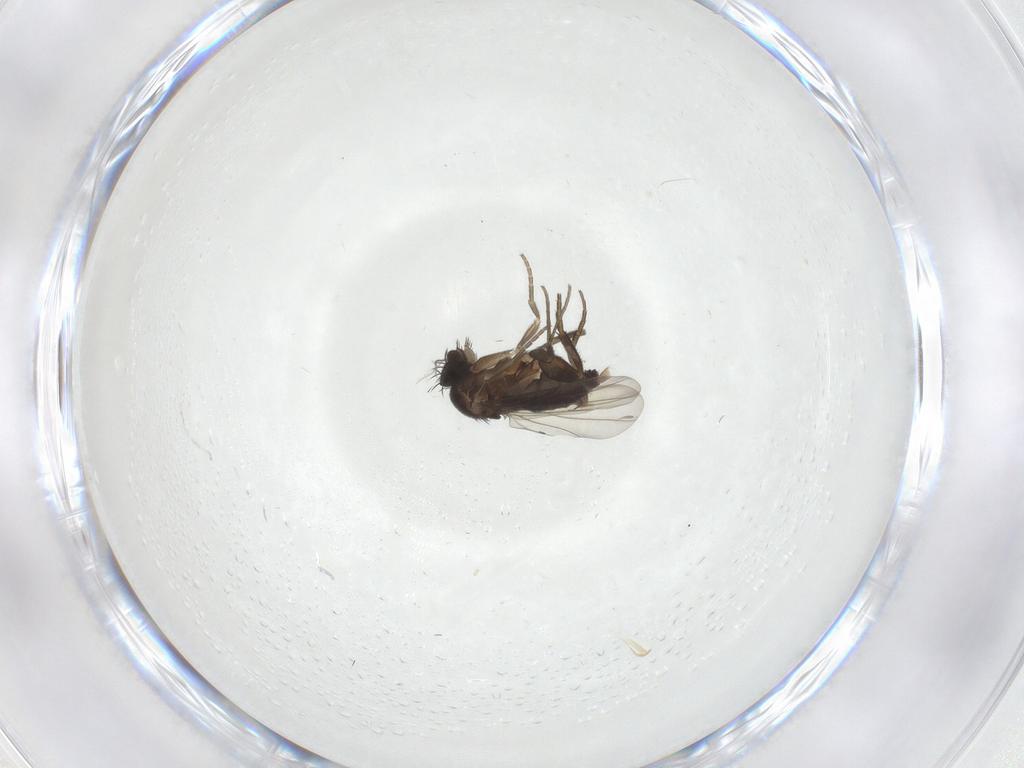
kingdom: Animalia
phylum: Arthropoda
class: Insecta
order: Diptera
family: Phoridae
